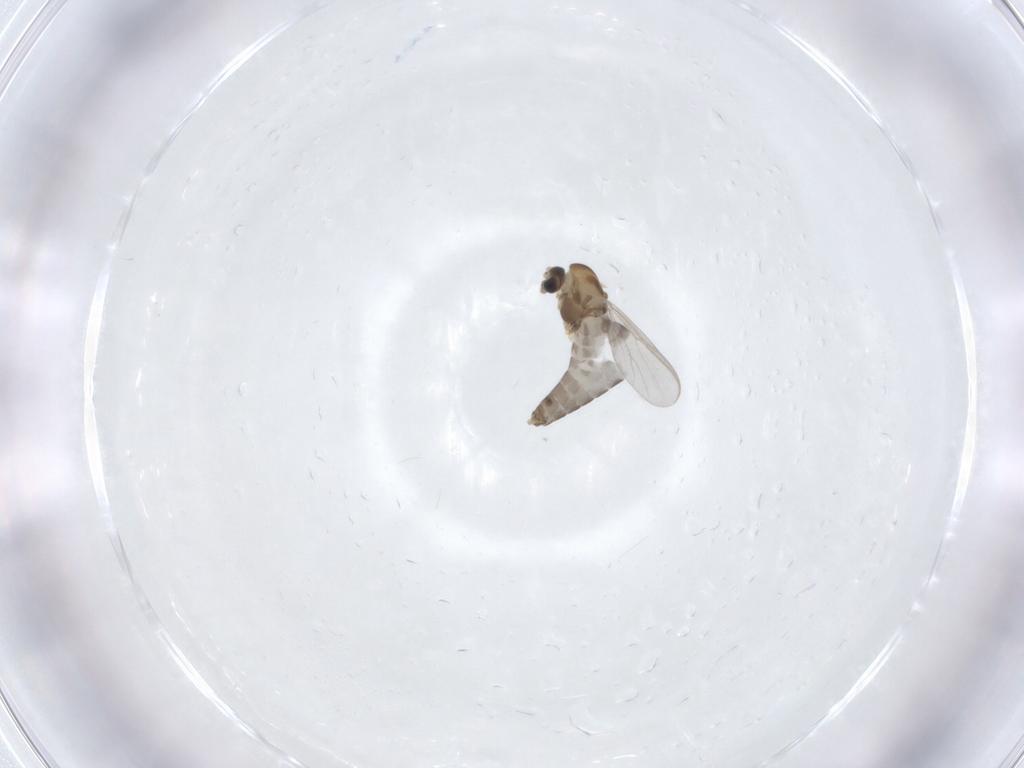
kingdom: Animalia
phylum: Arthropoda
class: Insecta
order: Diptera
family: Chironomidae
